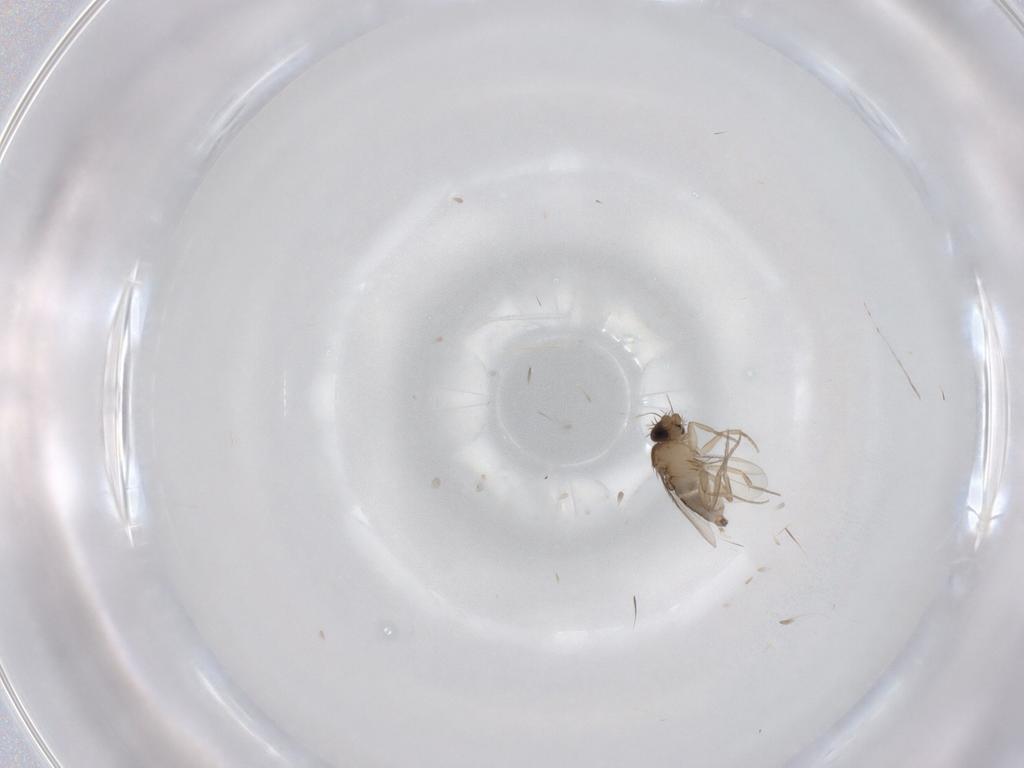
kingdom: Animalia
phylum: Arthropoda
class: Insecta
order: Diptera
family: Phoridae
